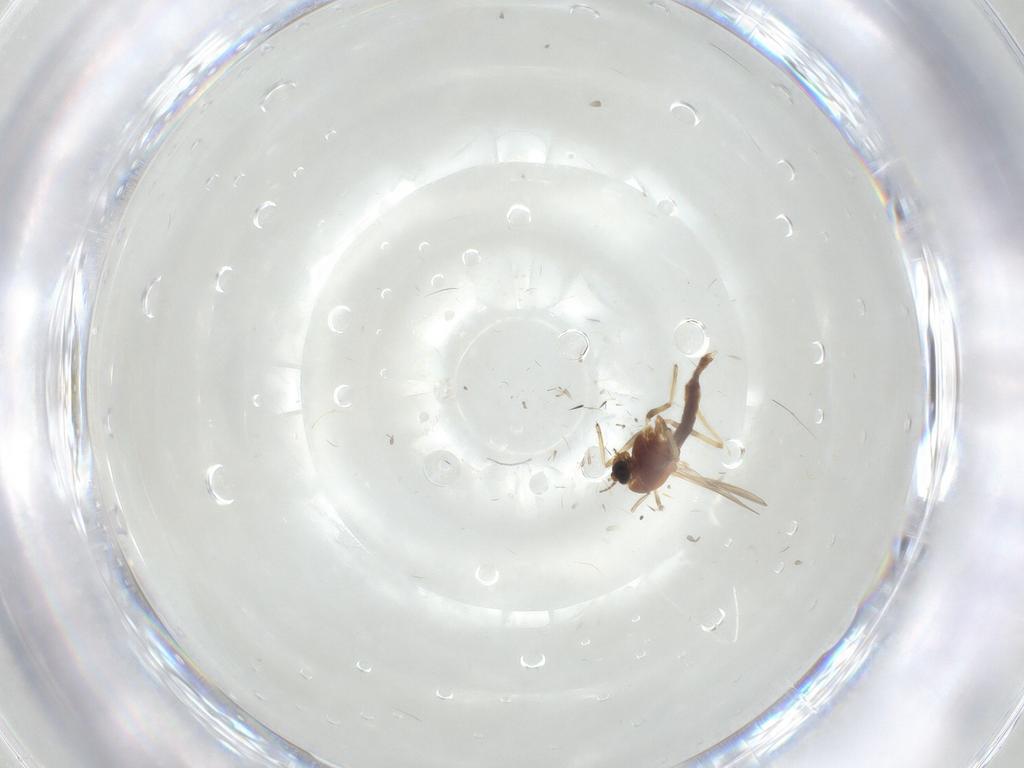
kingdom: Animalia
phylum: Arthropoda
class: Insecta
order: Diptera
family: Chironomidae
